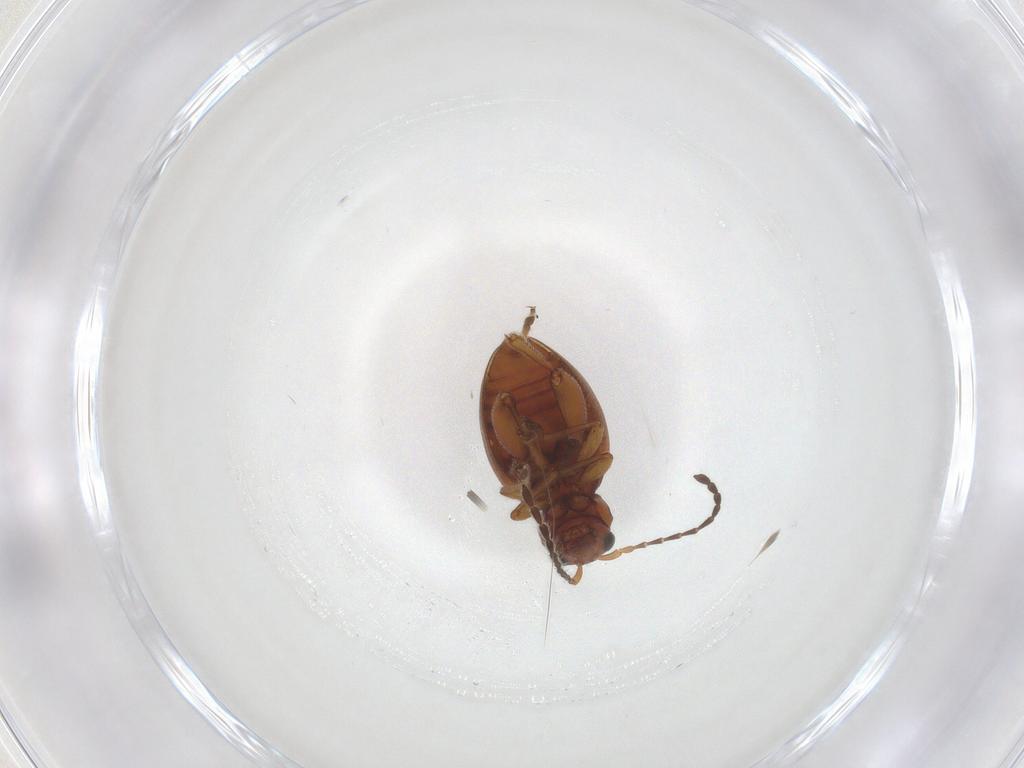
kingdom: Animalia
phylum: Arthropoda
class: Insecta
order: Coleoptera
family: Chrysomelidae
